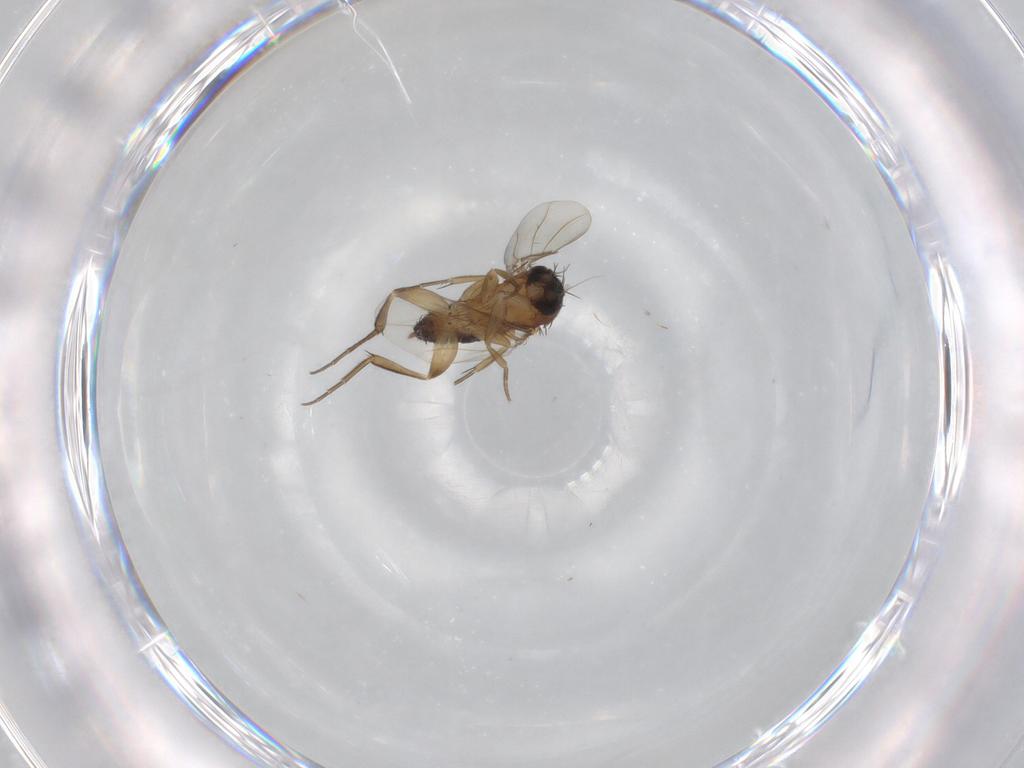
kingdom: Animalia
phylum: Arthropoda
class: Insecta
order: Diptera
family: Phoridae
